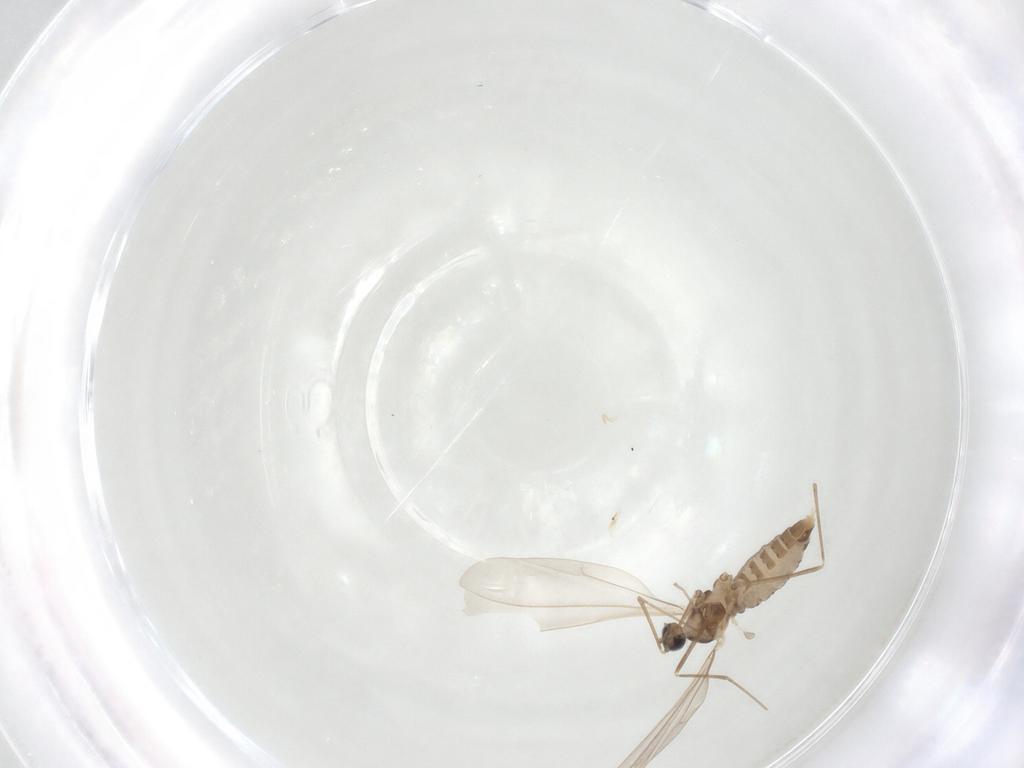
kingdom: Animalia
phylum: Arthropoda
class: Insecta
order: Diptera
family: Cecidomyiidae
